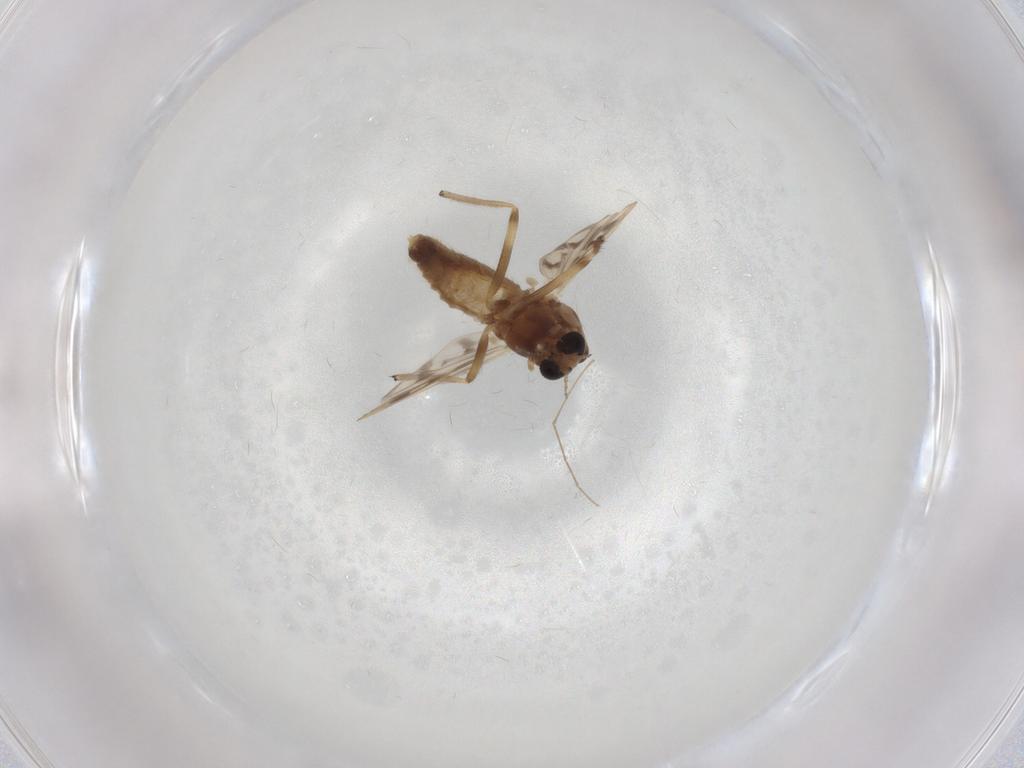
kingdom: Animalia
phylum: Arthropoda
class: Insecta
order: Diptera
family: Chironomidae
